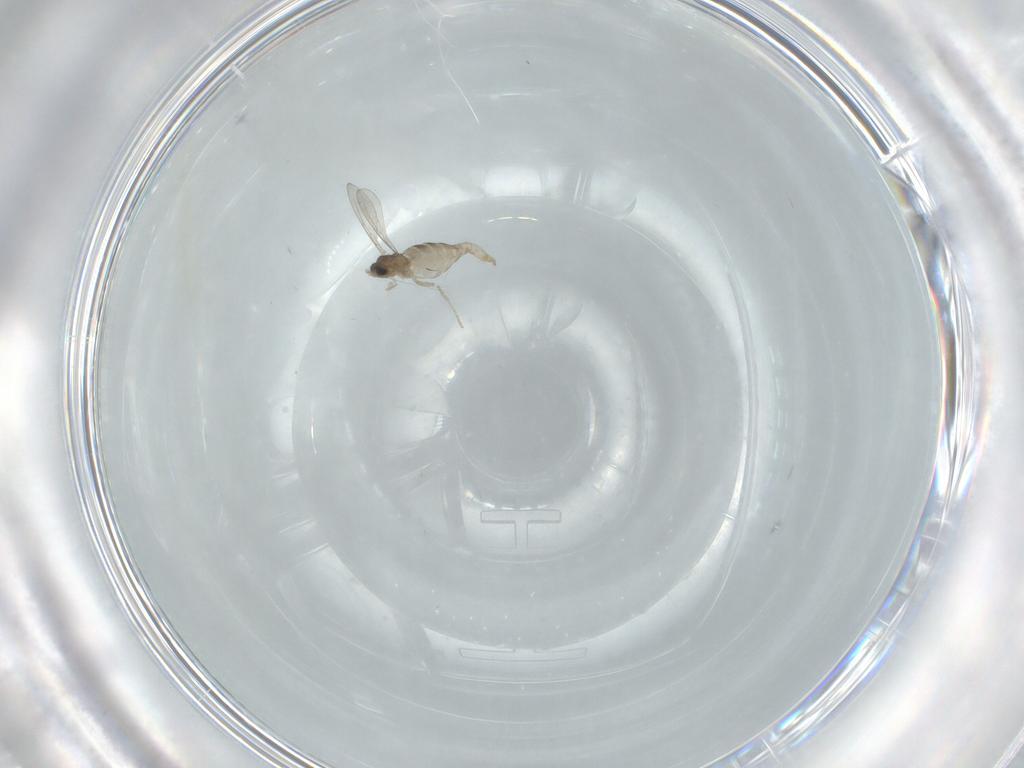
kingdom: Animalia
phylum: Arthropoda
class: Insecta
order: Diptera
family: Cecidomyiidae
